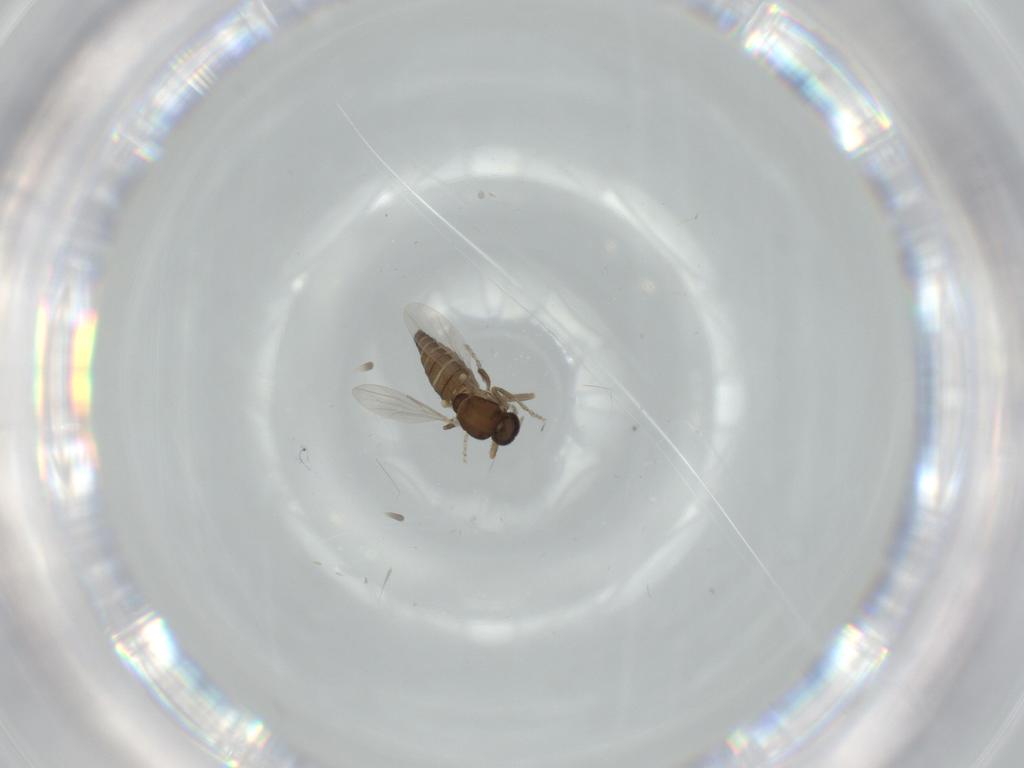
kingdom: Animalia
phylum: Arthropoda
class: Insecta
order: Diptera
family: Ceratopogonidae
